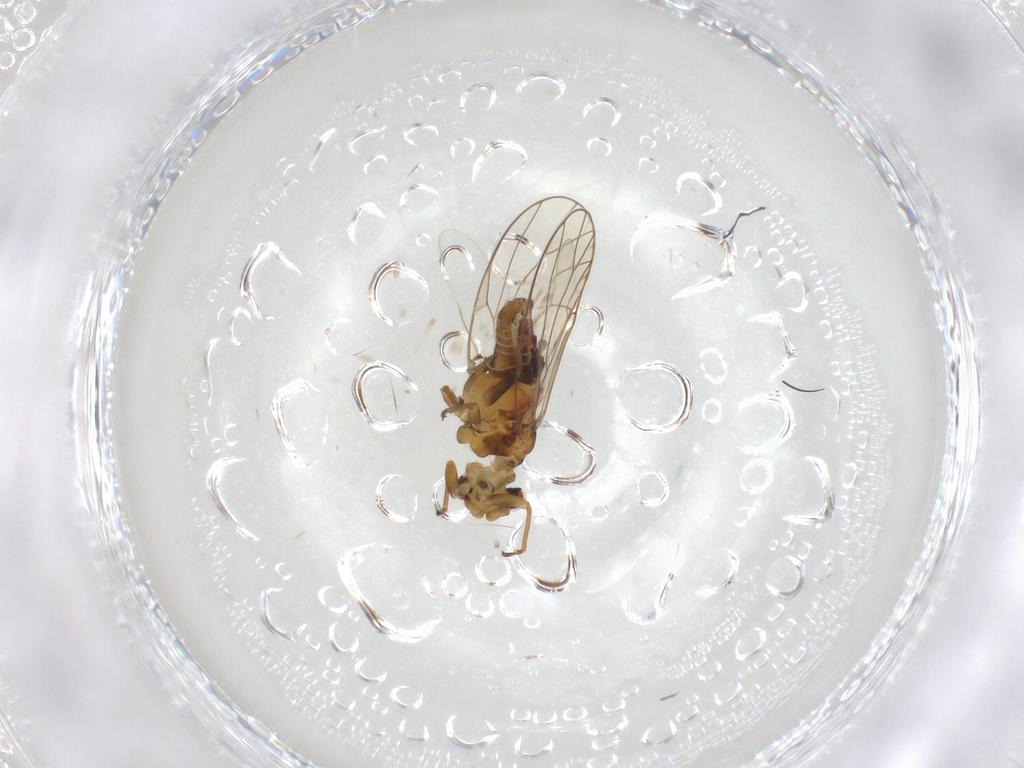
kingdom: Animalia
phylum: Arthropoda
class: Insecta
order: Diptera
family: Ceratopogonidae
